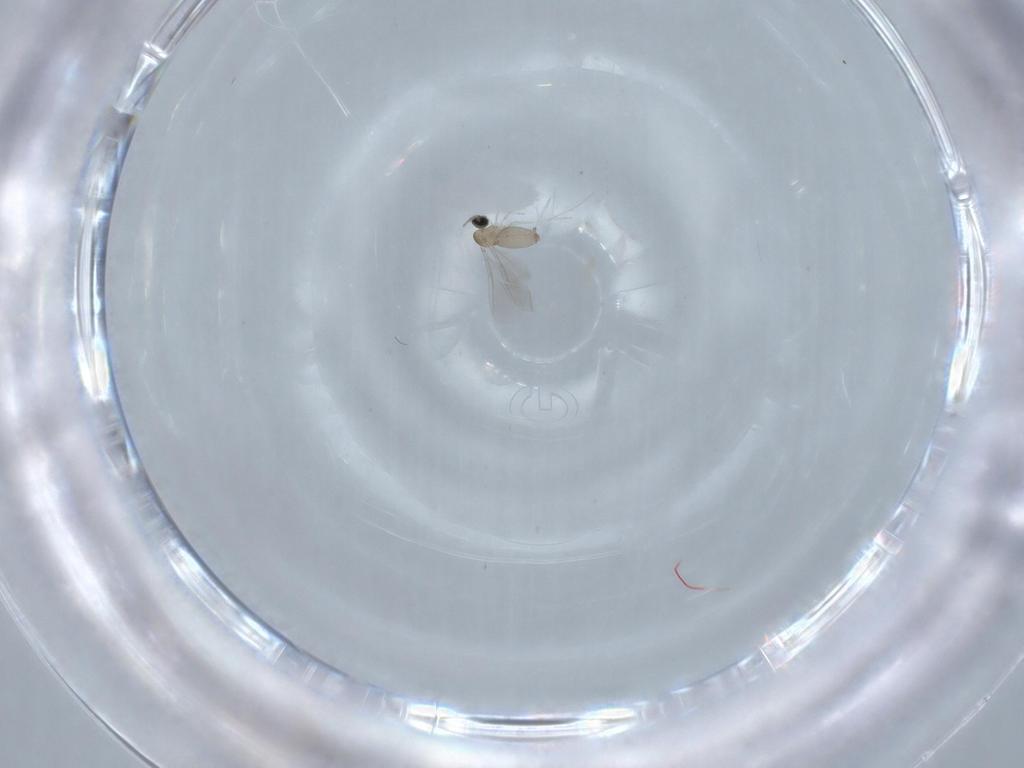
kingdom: Animalia
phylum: Arthropoda
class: Insecta
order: Diptera
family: Cecidomyiidae
